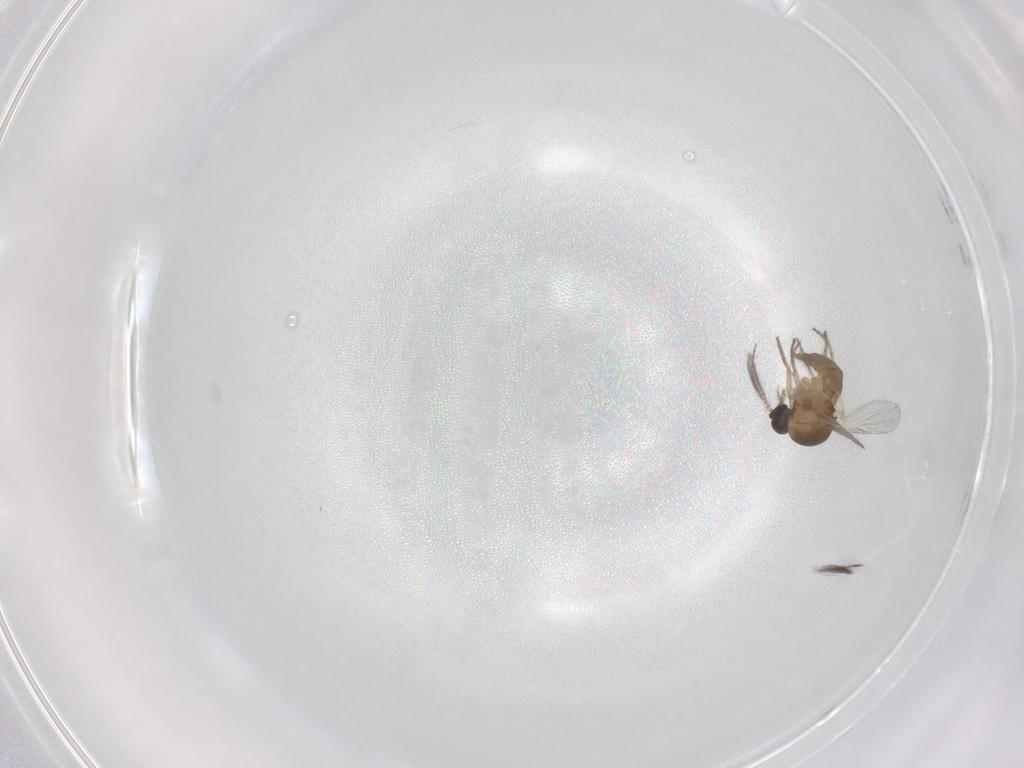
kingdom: Animalia
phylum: Arthropoda
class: Insecta
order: Diptera
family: Ceratopogonidae
